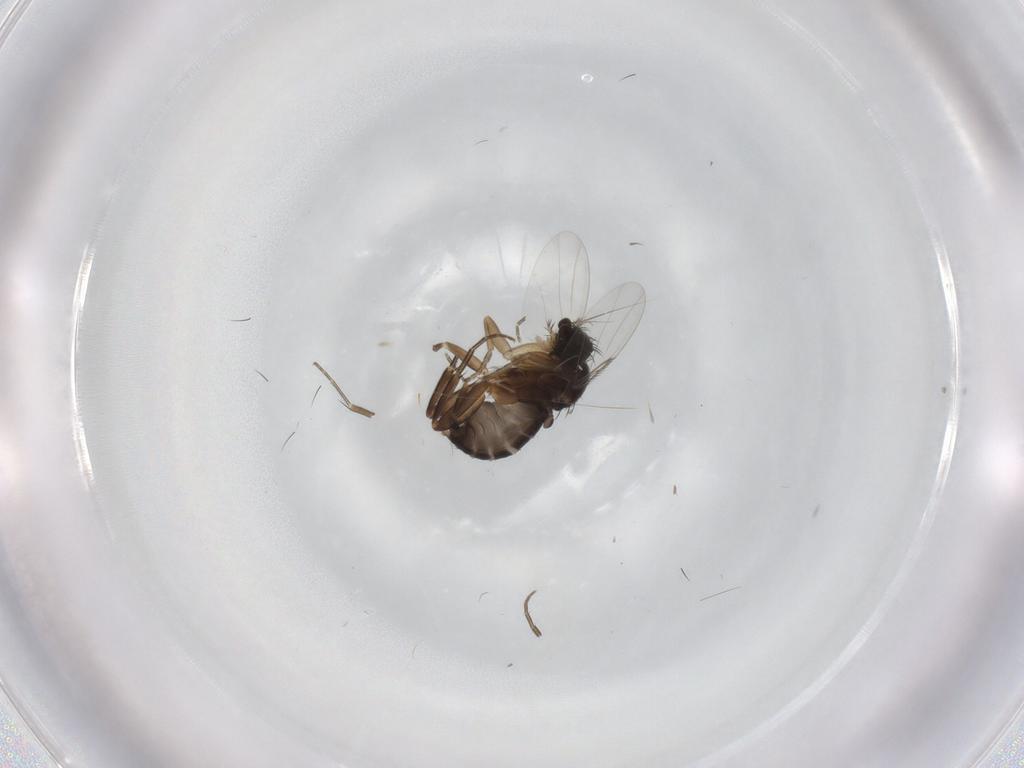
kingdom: Animalia
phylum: Arthropoda
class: Insecta
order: Diptera
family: Phoridae
